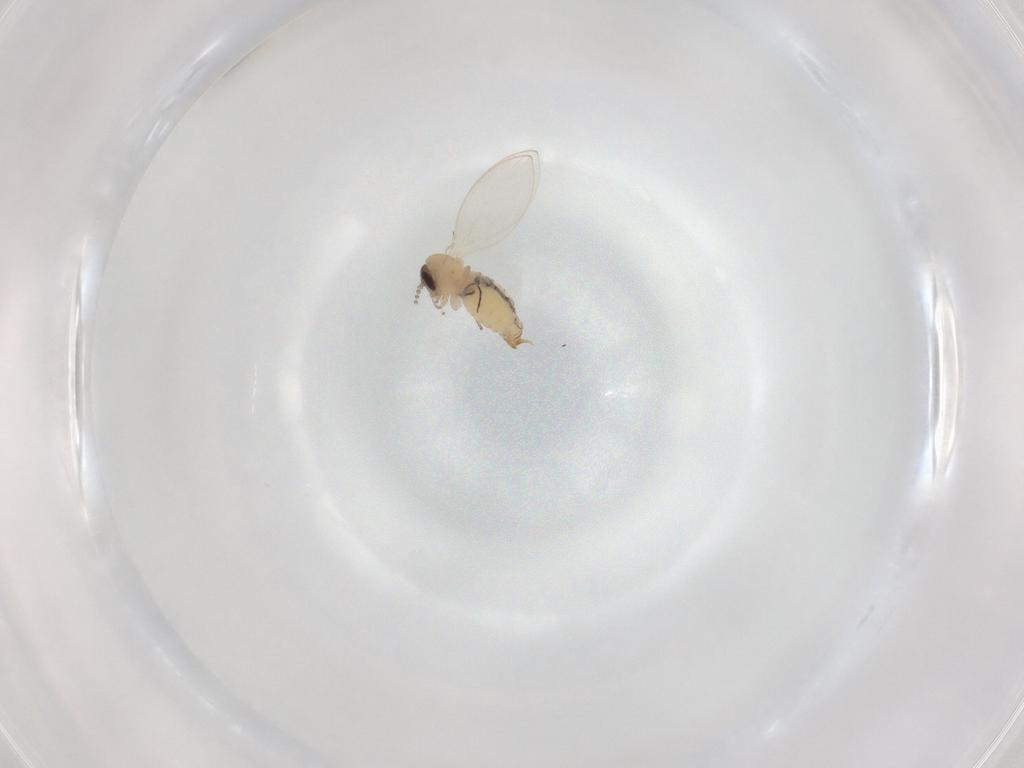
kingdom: Animalia
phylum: Arthropoda
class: Insecta
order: Diptera
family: Psychodidae
